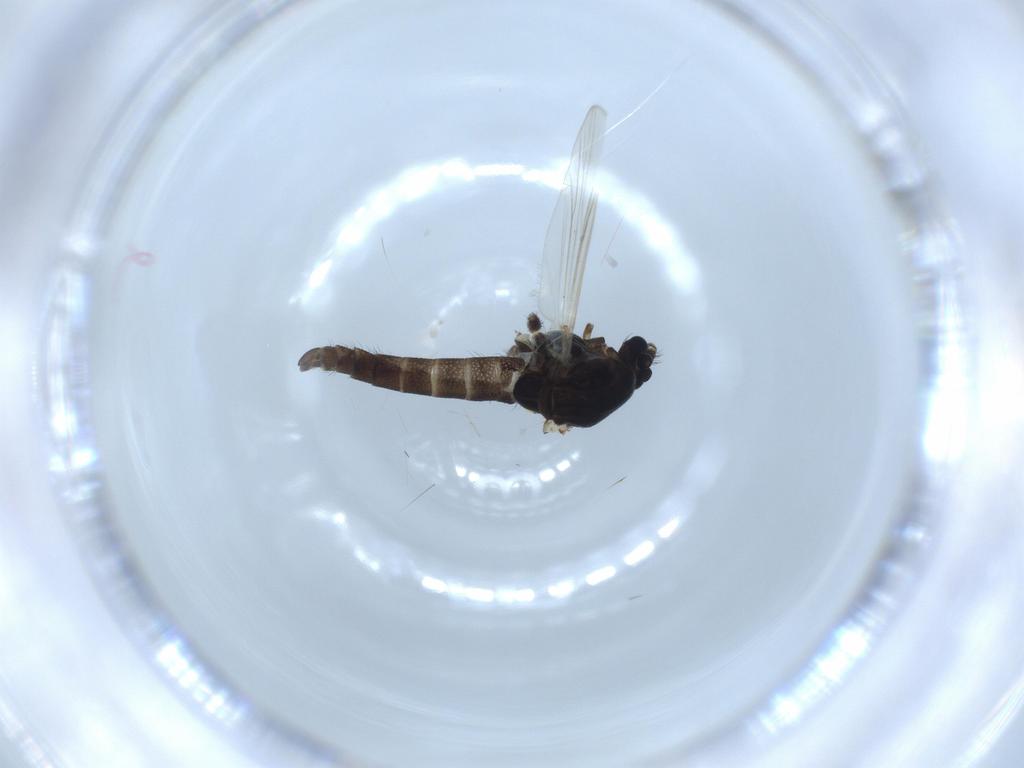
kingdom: Animalia
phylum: Arthropoda
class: Insecta
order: Diptera
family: Chironomidae
